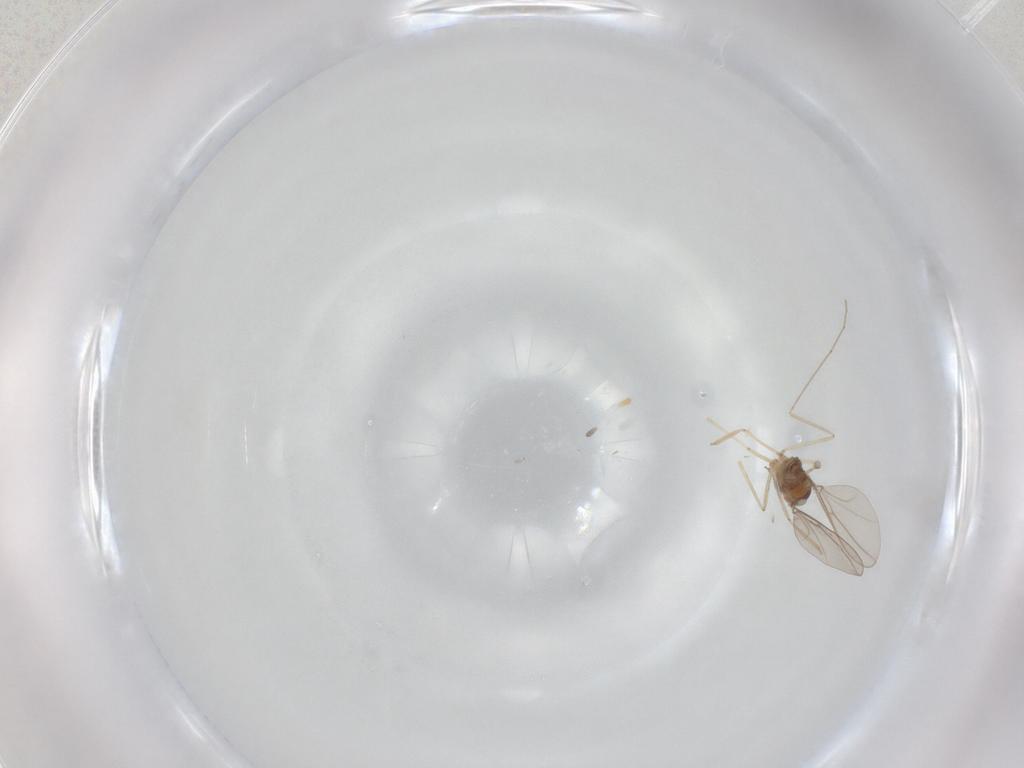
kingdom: Animalia
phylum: Arthropoda
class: Insecta
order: Diptera
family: Cecidomyiidae
